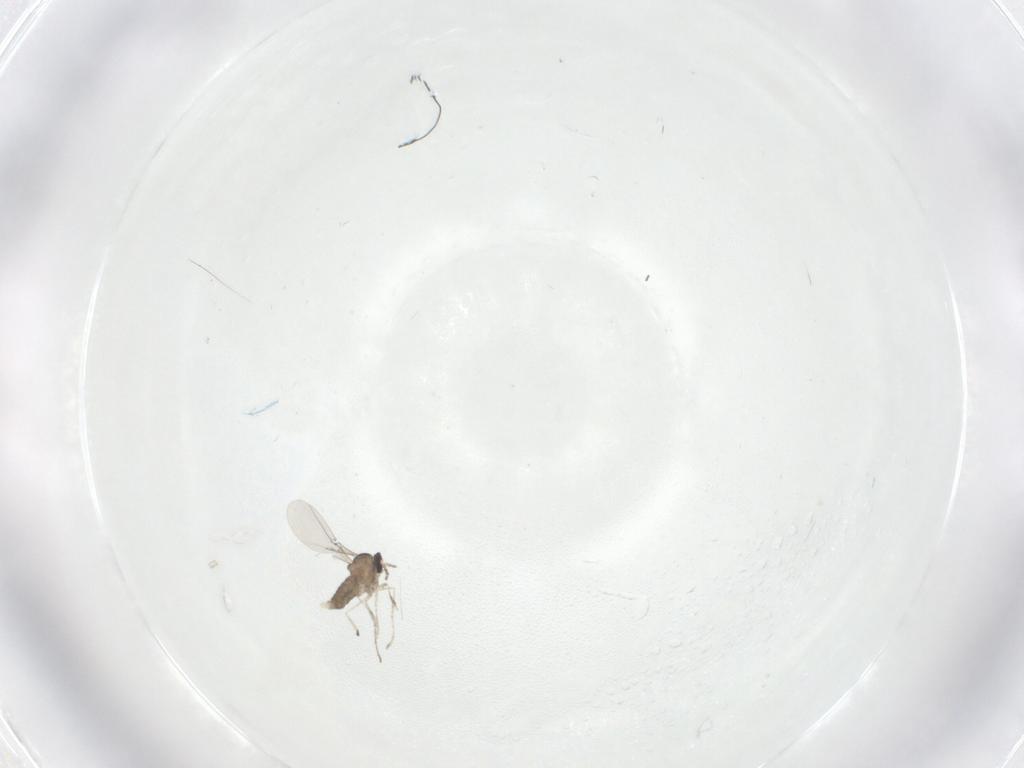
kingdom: Animalia
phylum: Arthropoda
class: Insecta
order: Diptera
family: Cecidomyiidae
